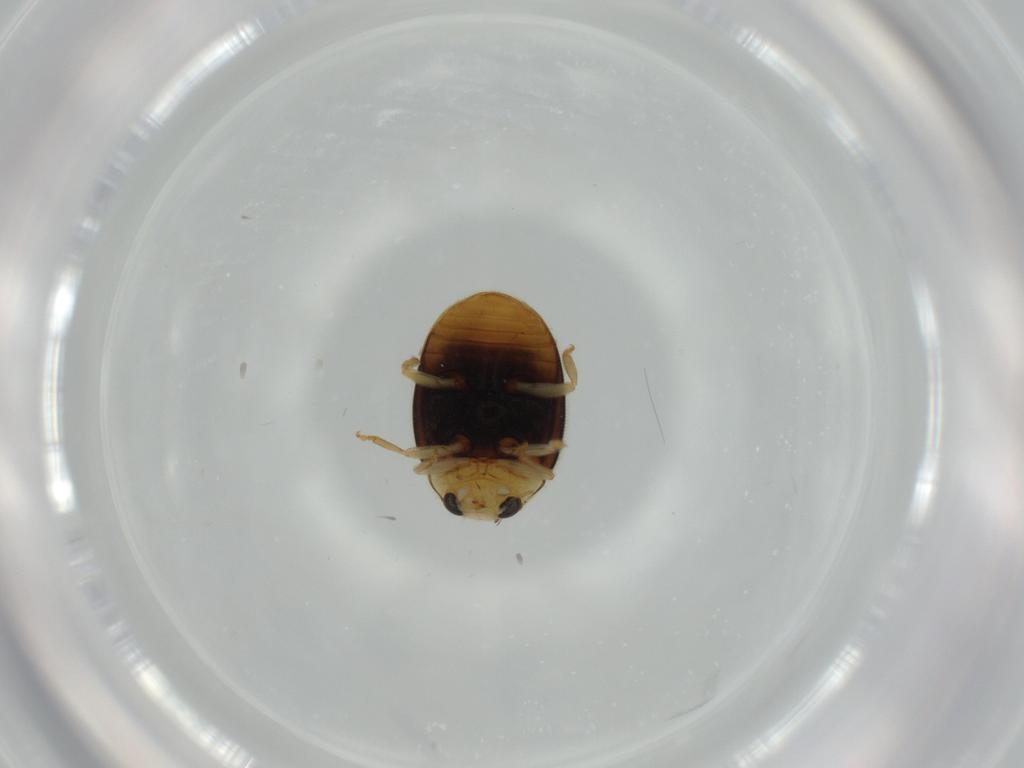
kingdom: Animalia
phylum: Arthropoda
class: Insecta
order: Coleoptera
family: Curculionidae
